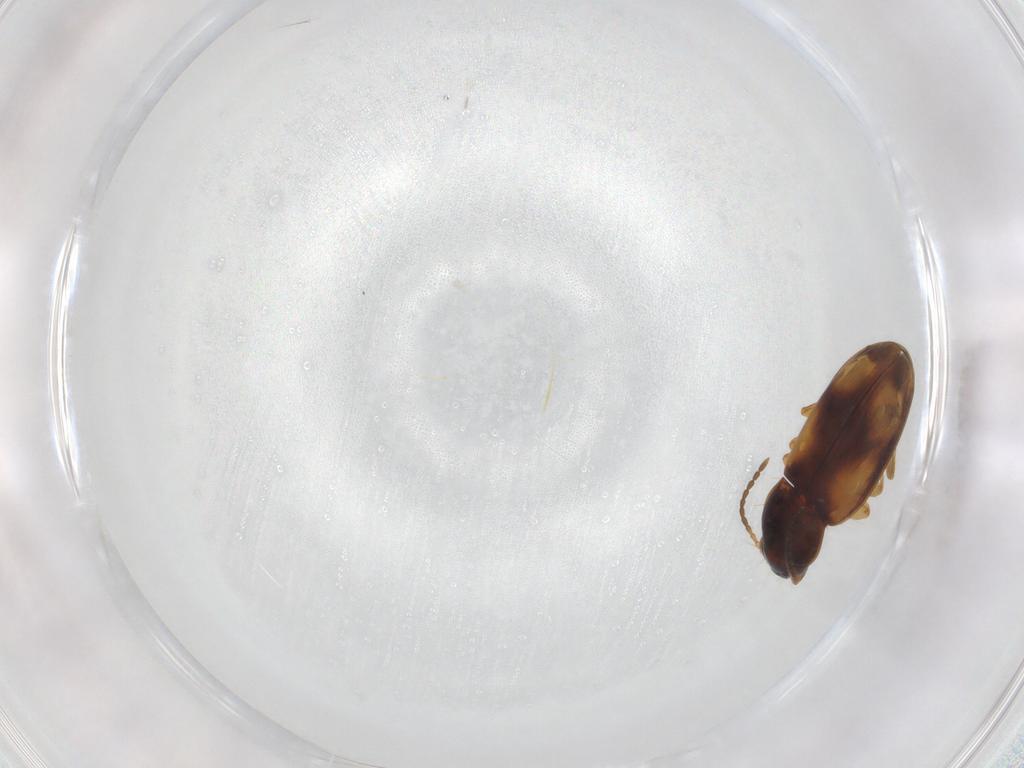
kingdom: Animalia
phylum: Arthropoda
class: Insecta
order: Coleoptera
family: Carabidae
